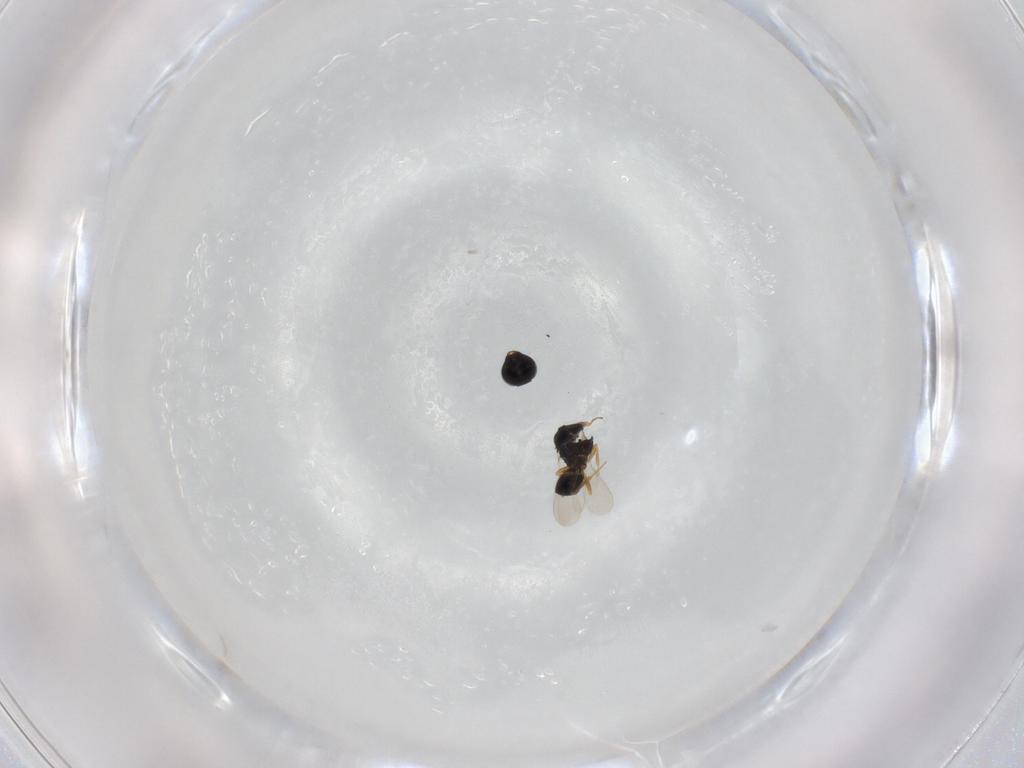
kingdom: Animalia
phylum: Arthropoda
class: Insecta
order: Hymenoptera
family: Scelionidae
